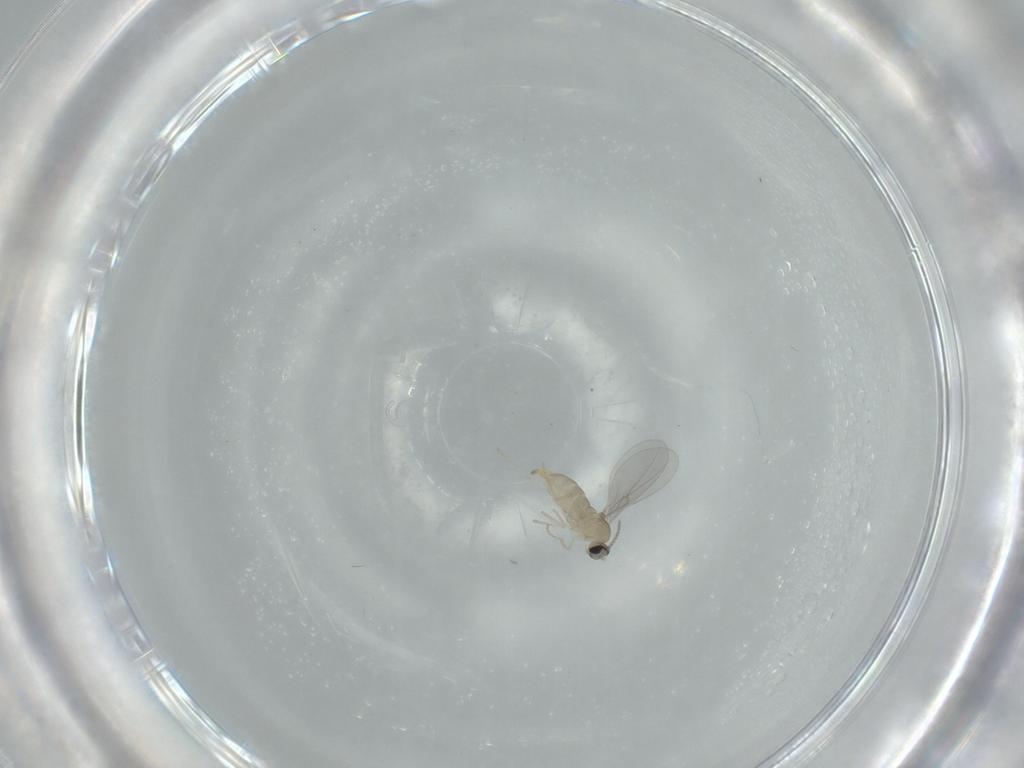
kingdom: Animalia
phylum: Arthropoda
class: Insecta
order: Diptera
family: Cecidomyiidae
